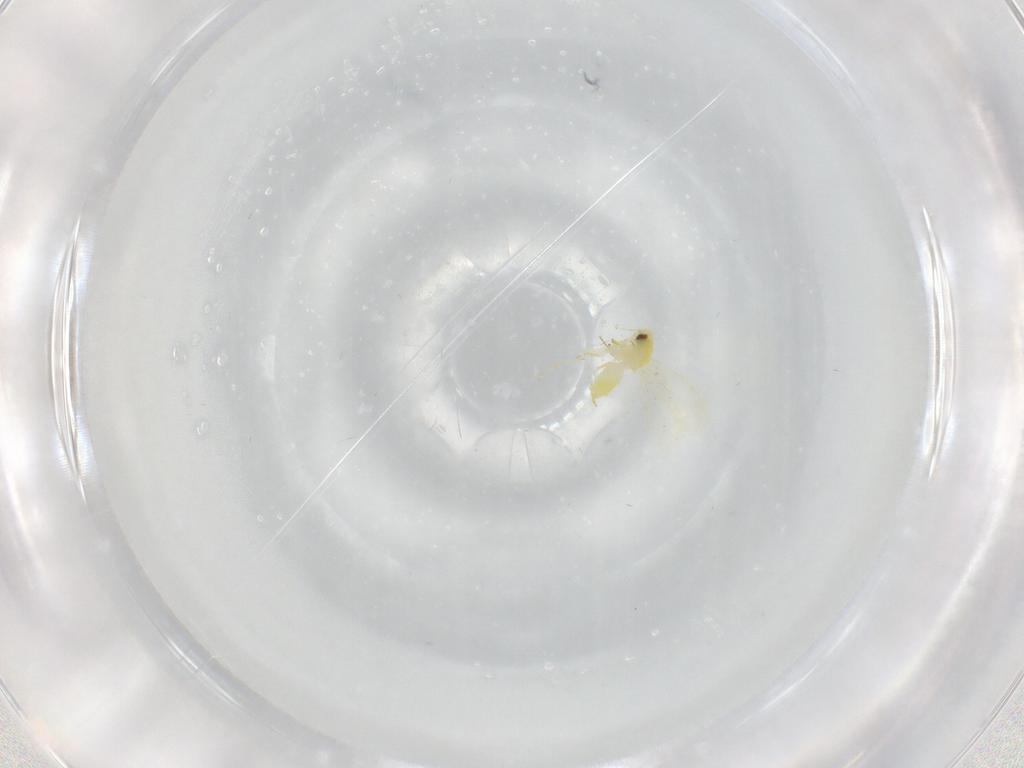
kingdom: Animalia
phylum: Arthropoda
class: Insecta
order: Hemiptera
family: Aleyrodidae
